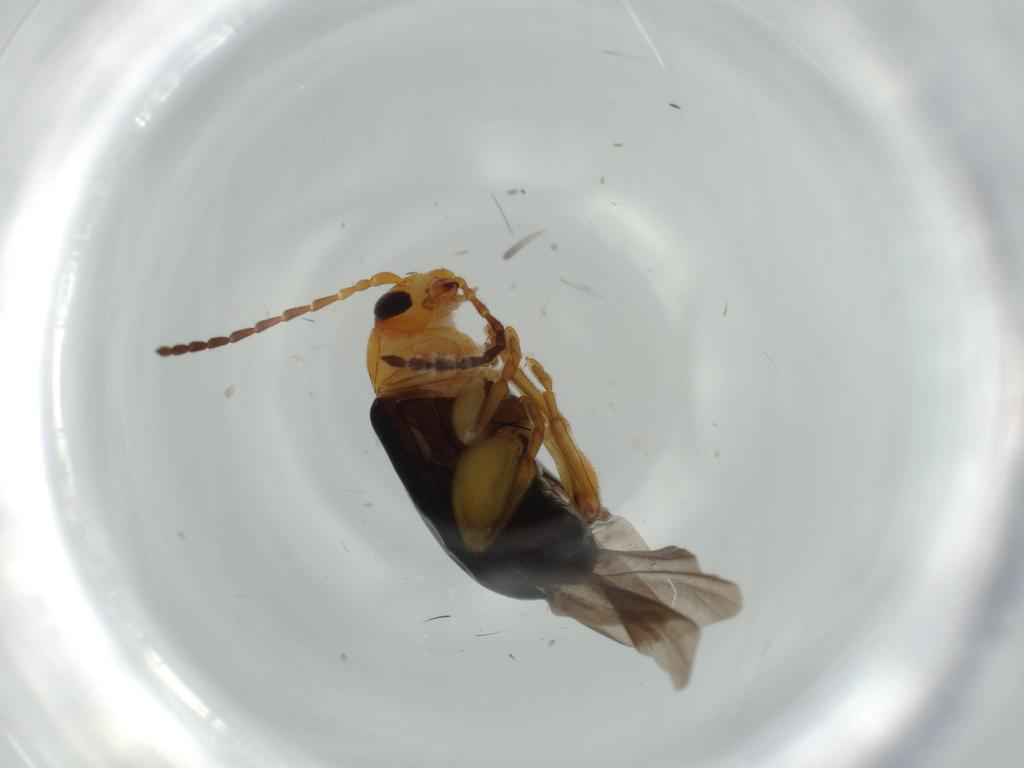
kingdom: Animalia
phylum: Arthropoda
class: Insecta
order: Coleoptera
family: Chrysomelidae
